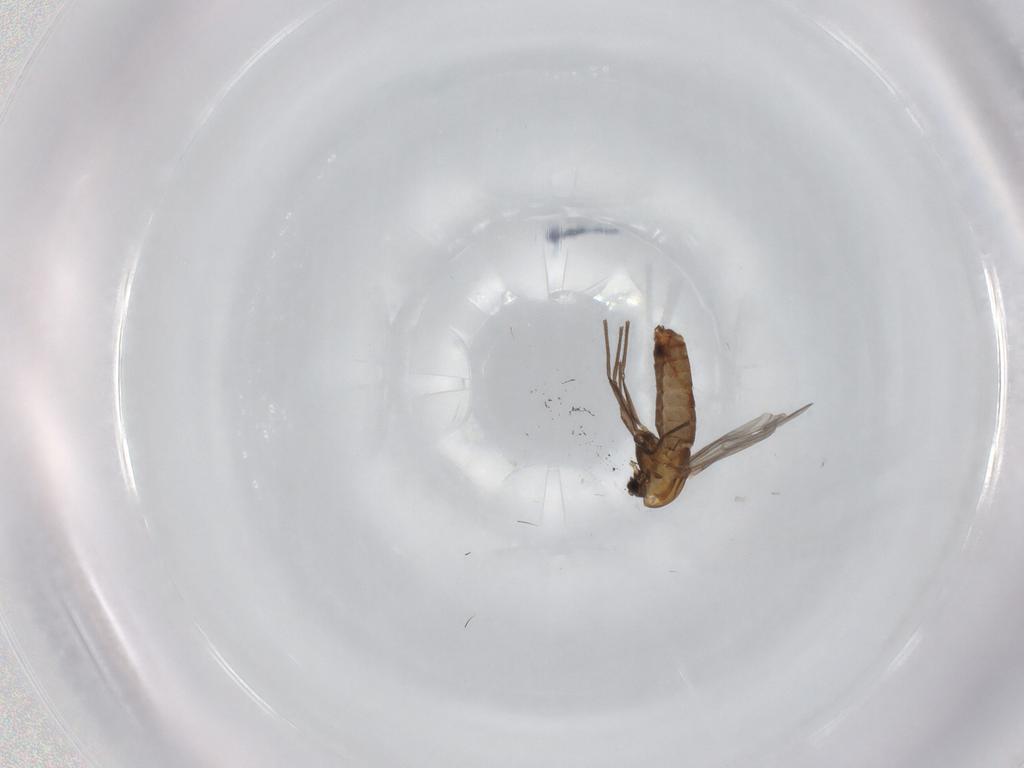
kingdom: Animalia
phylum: Arthropoda
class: Insecta
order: Diptera
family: Chironomidae
